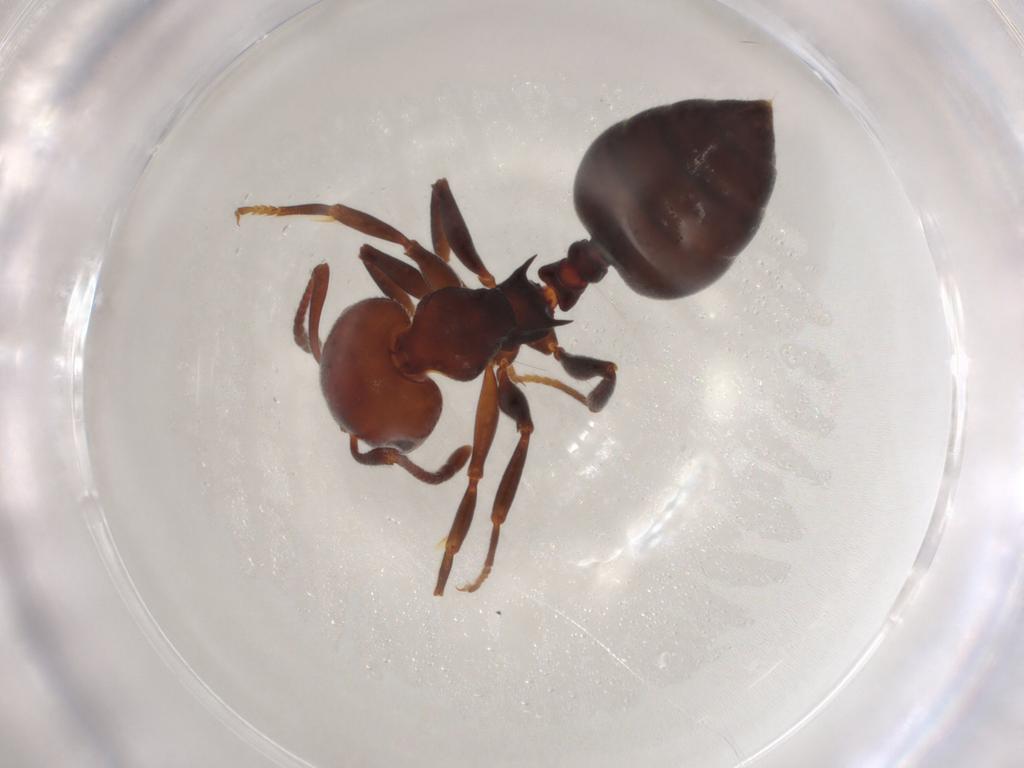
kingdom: Animalia
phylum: Arthropoda
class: Insecta
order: Hymenoptera
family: Formicidae
